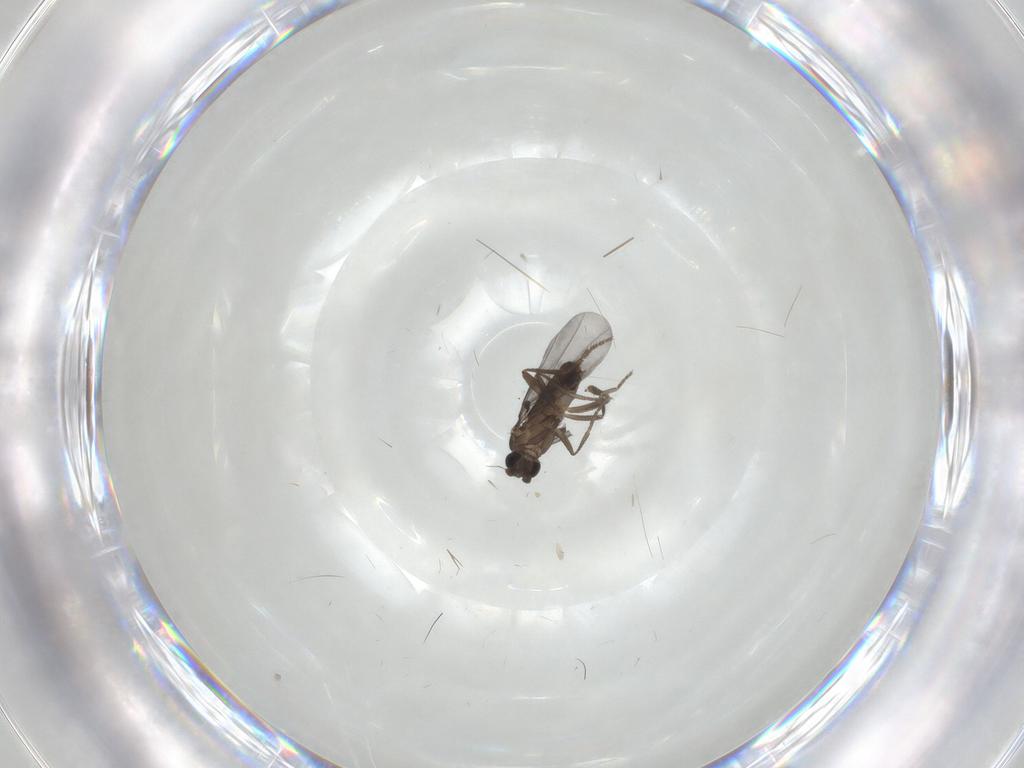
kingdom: Animalia
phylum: Arthropoda
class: Insecta
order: Diptera
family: Phoridae
